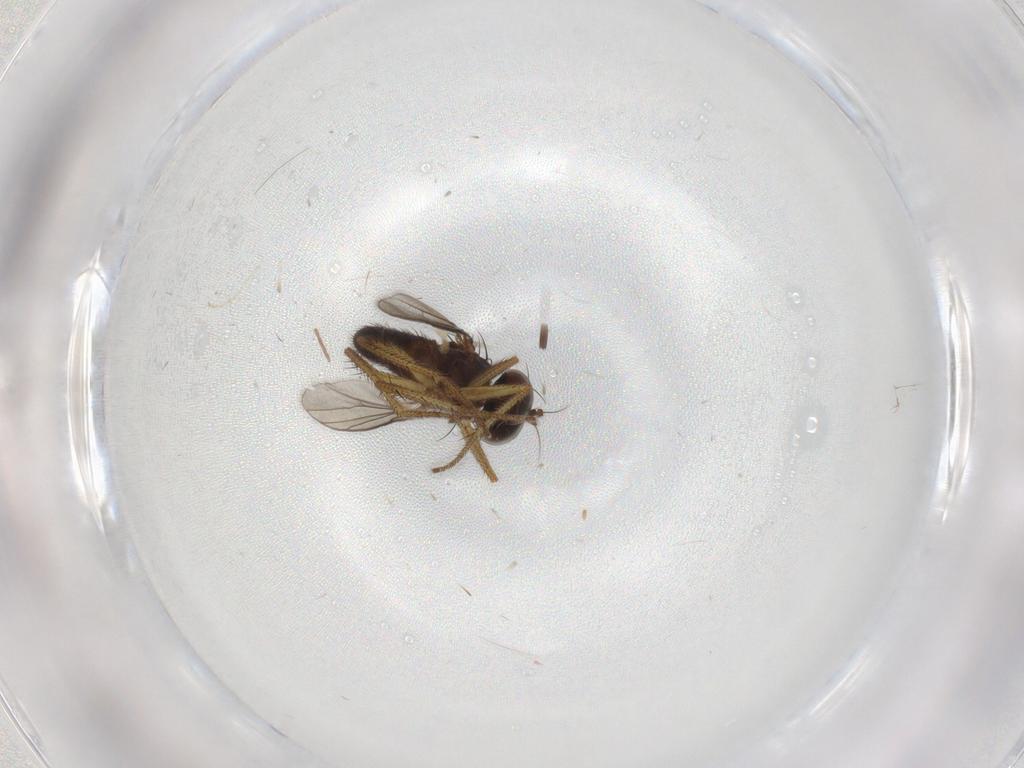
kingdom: Animalia
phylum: Arthropoda
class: Insecta
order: Diptera
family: Dolichopodidae
